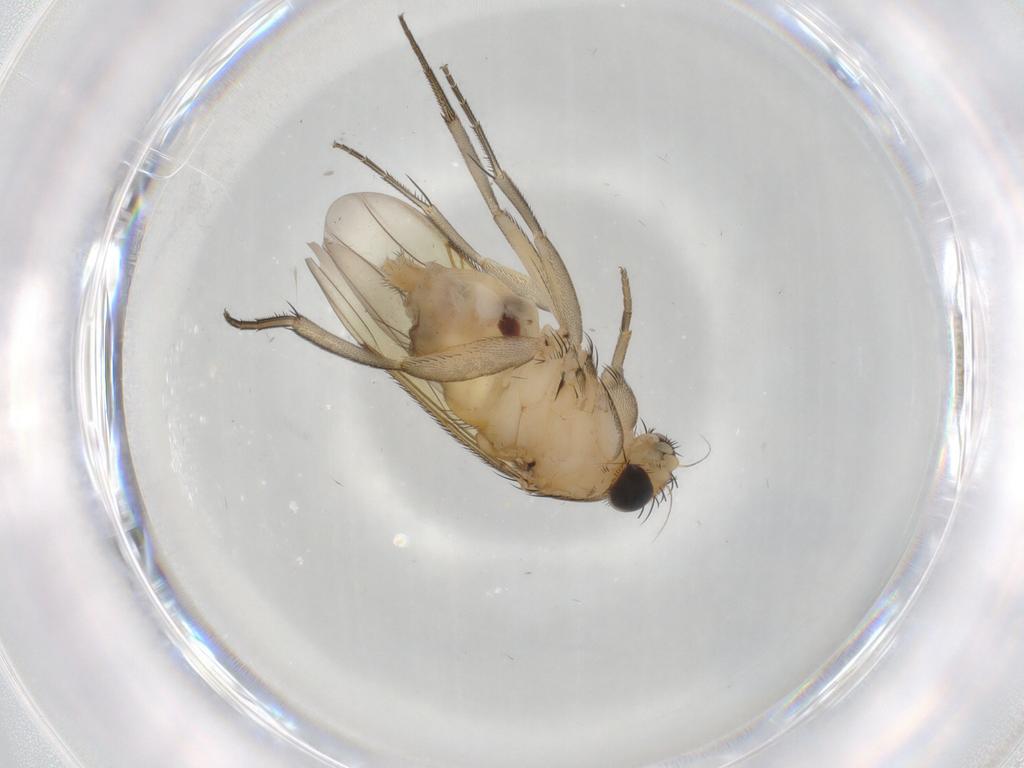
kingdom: Animalia
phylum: Arthropoda
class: Insecta
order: Diptera
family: Phoridae
